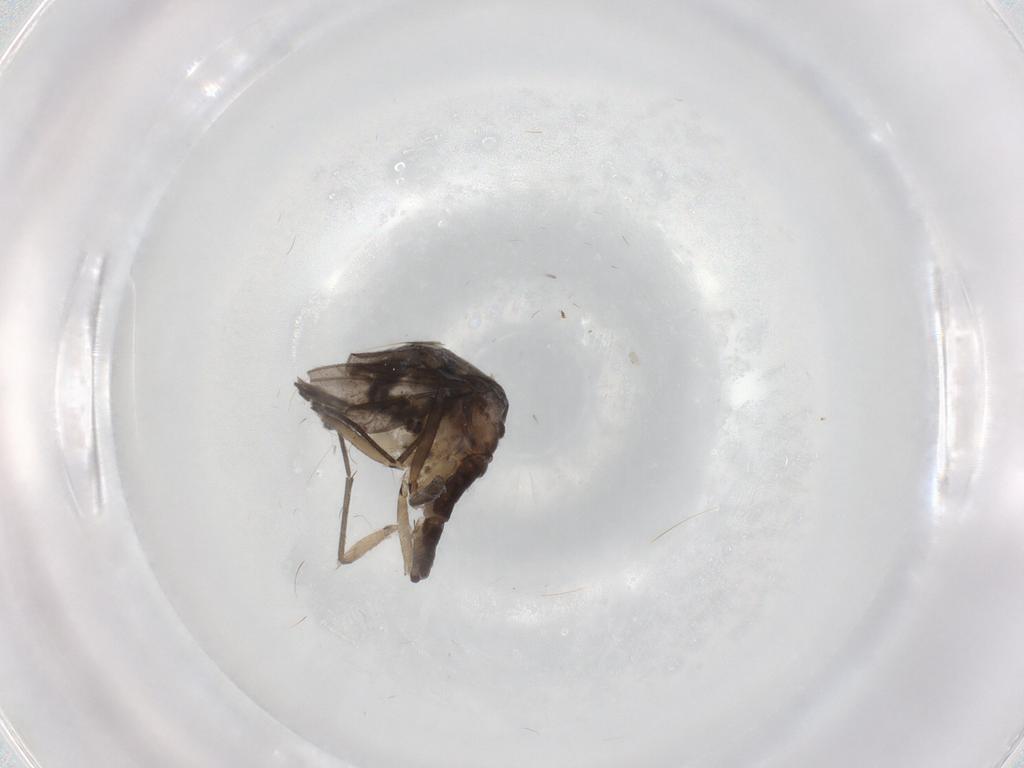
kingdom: Animalia
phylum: Arthropoda
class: Insecta
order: Diptera
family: Sciaridae
